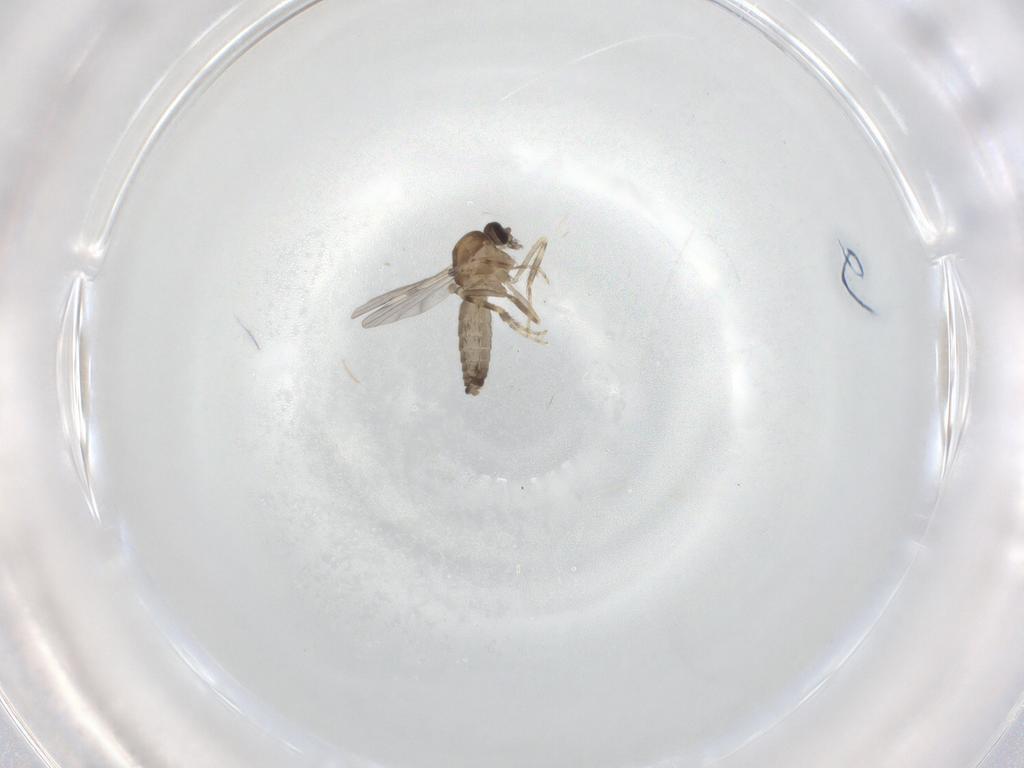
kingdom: Animalia
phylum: Arthropoda
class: Insecta
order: Diptera
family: Ceratopogonidae
